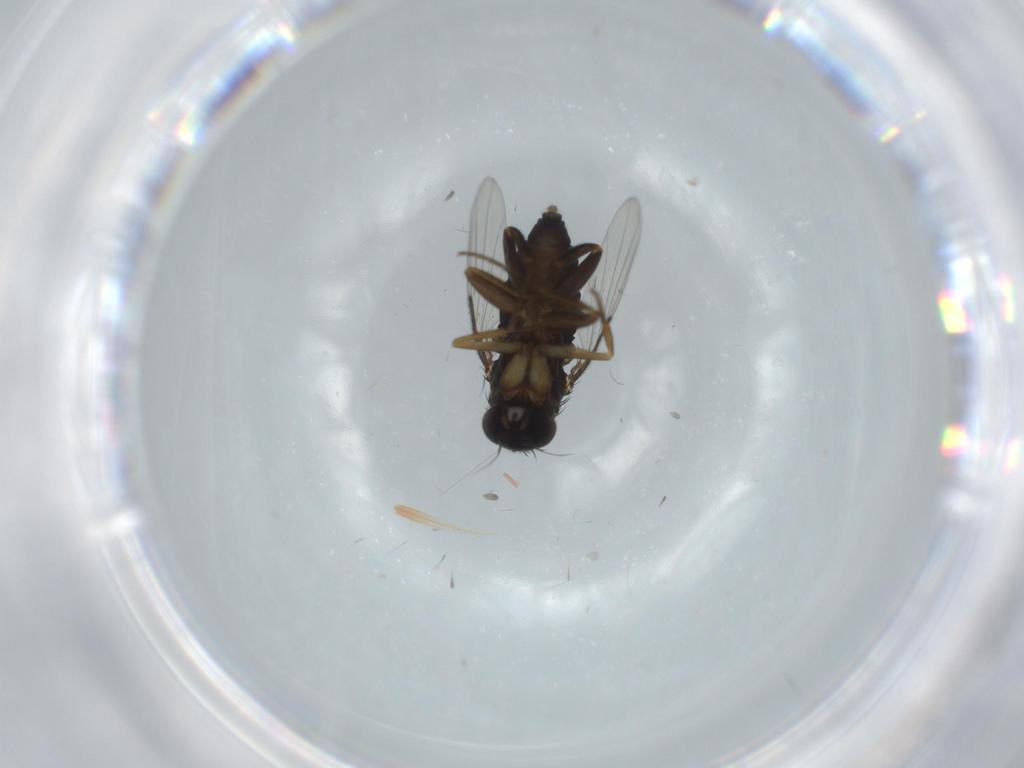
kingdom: Animalia
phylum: Arthropoda
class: Insecta
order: Diptera
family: Phoridae
